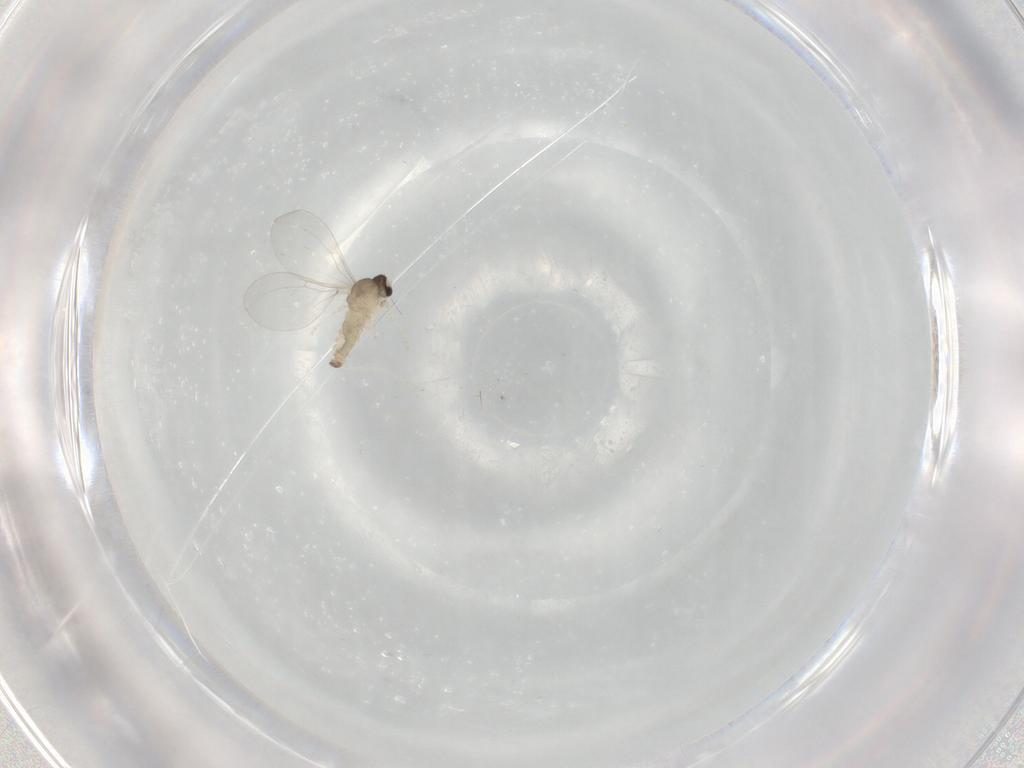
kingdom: Animalia
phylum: Arthropoda
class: Insecta
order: Diptera
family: Cecidomyiidae
